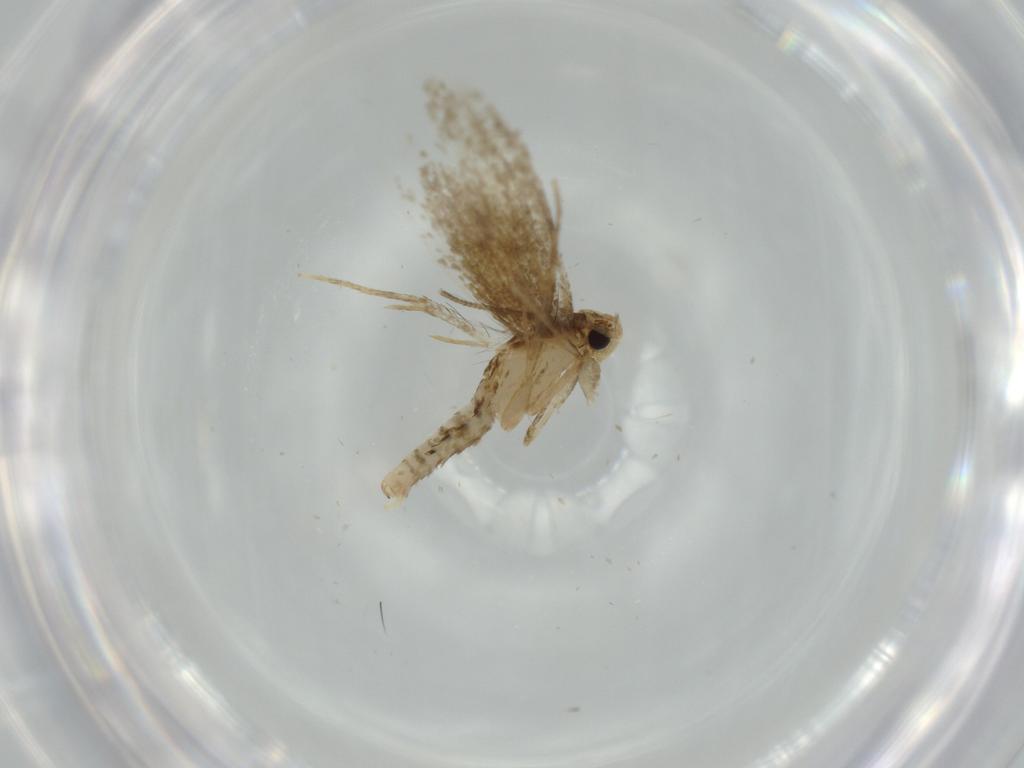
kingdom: Animalia
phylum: Arthropoda
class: Insecta
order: Lepidoptera
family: Tineidae
